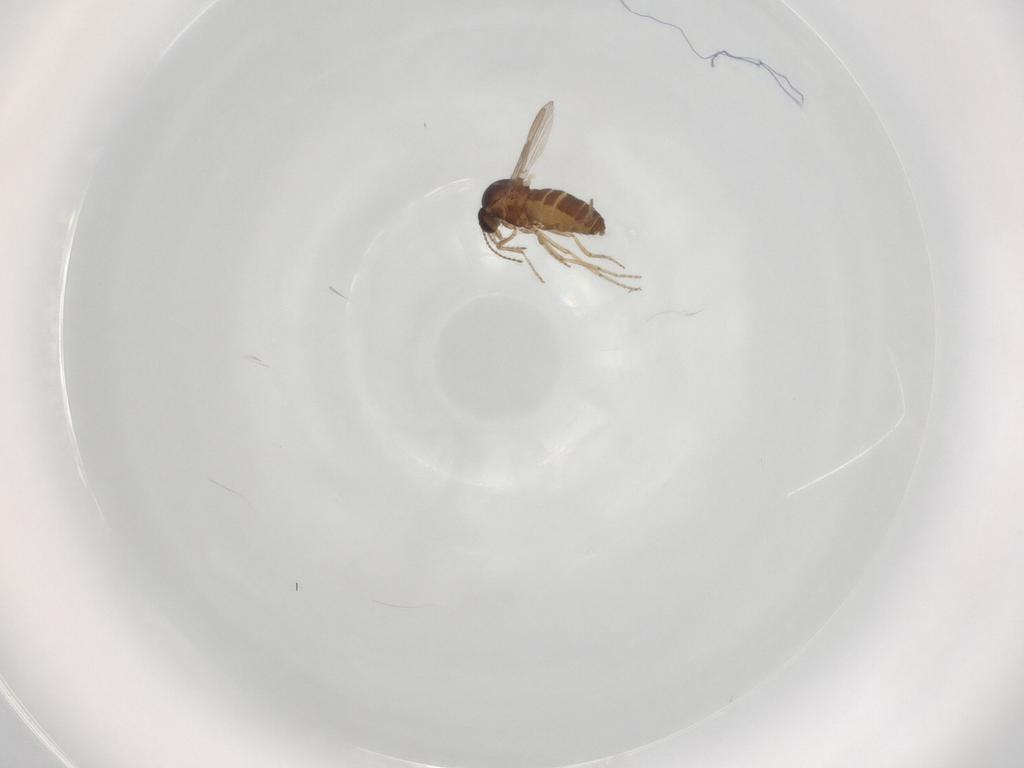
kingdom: Animalia
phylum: Arthropoda
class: Insecta
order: Diptera
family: Ceratopogonidae
